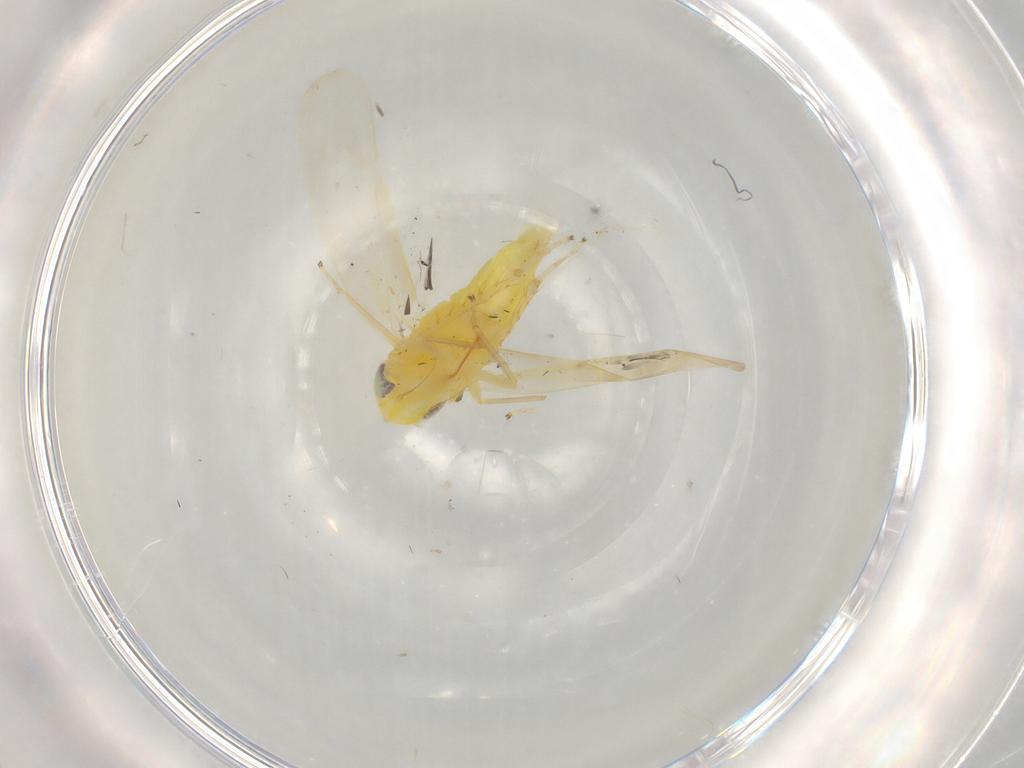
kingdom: Animalia
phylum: Arthropoda
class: Insecta
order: Hemiptera
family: Cicadellidae
